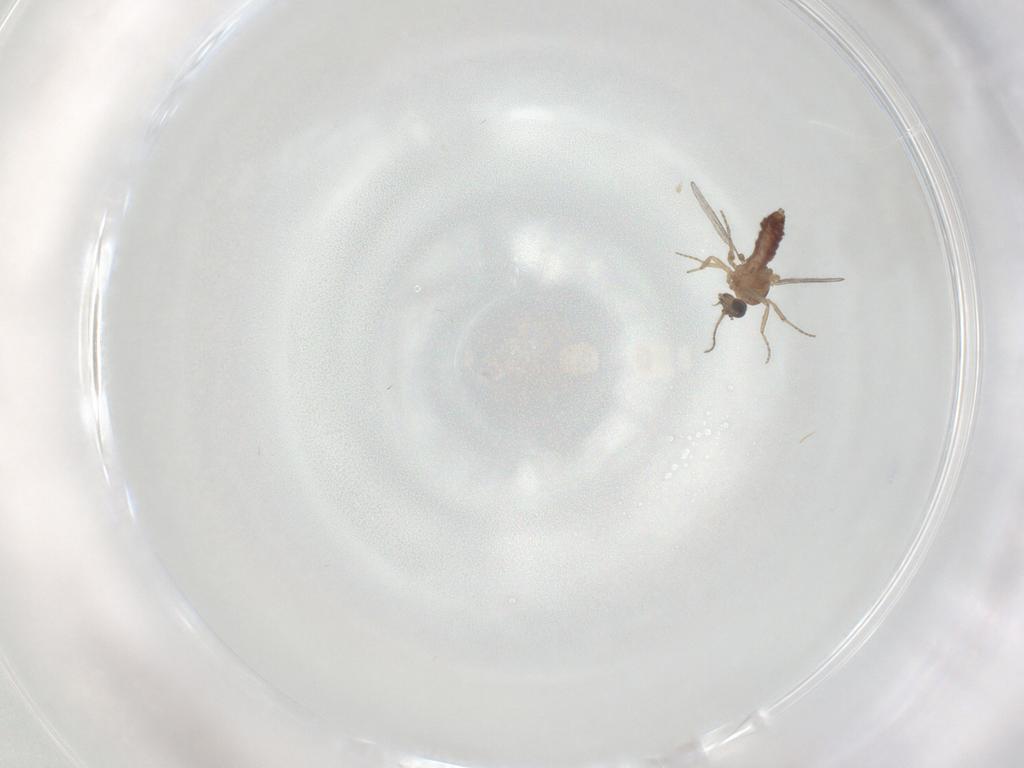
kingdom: Animalia
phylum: Arthropoda
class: Insecta
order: Diptera
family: Ceratopogonidae
